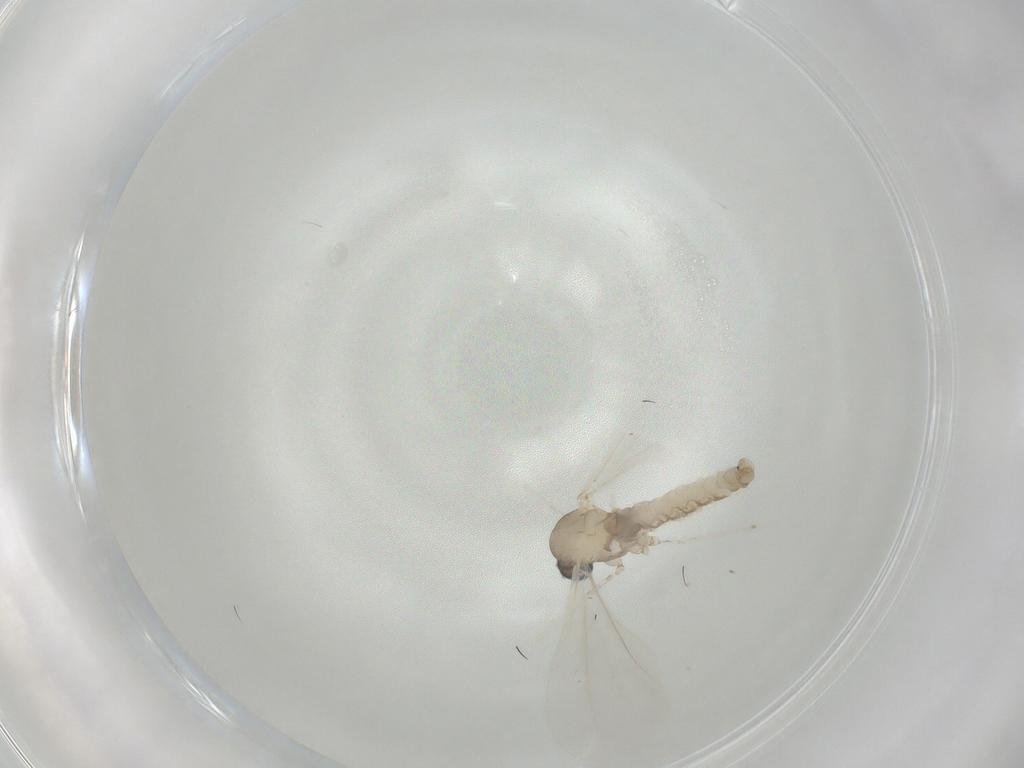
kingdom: Animalia
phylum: Arthropoda
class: Insecta
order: Diptera
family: Cecidomyiidae
